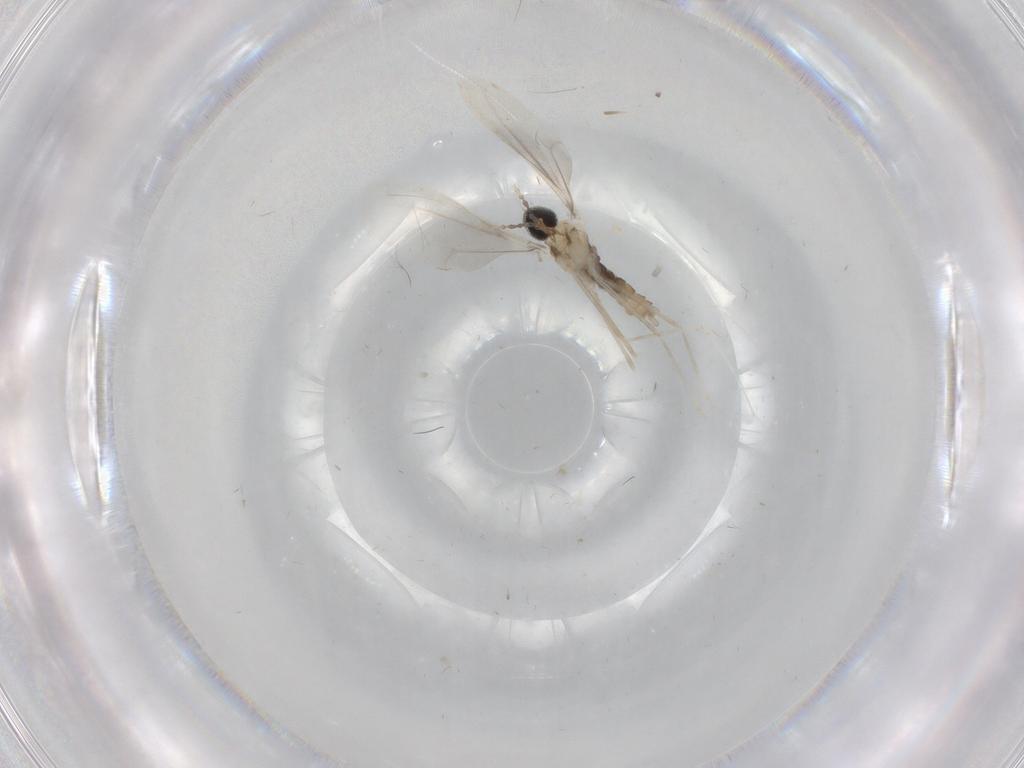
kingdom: Animalia
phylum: Arthropoda
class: Insecta
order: Diptera
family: Cecidomyiidae
